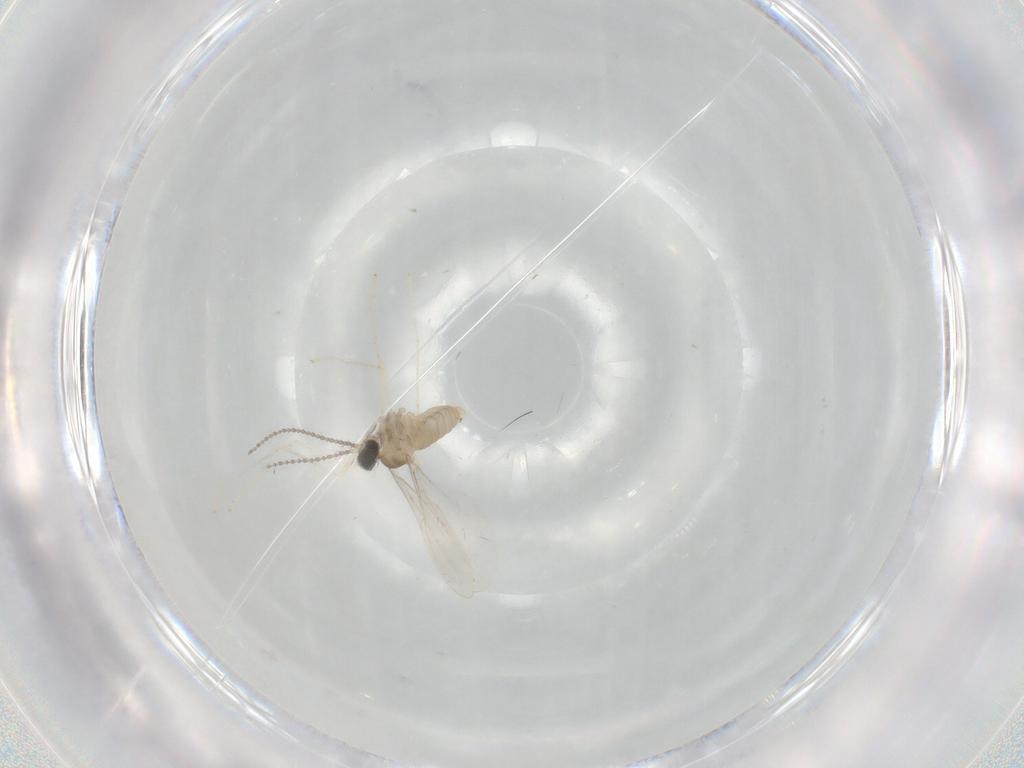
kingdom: Animalia
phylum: Arthropoda
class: Insecta
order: Diptera
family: Cecidomyiidae
